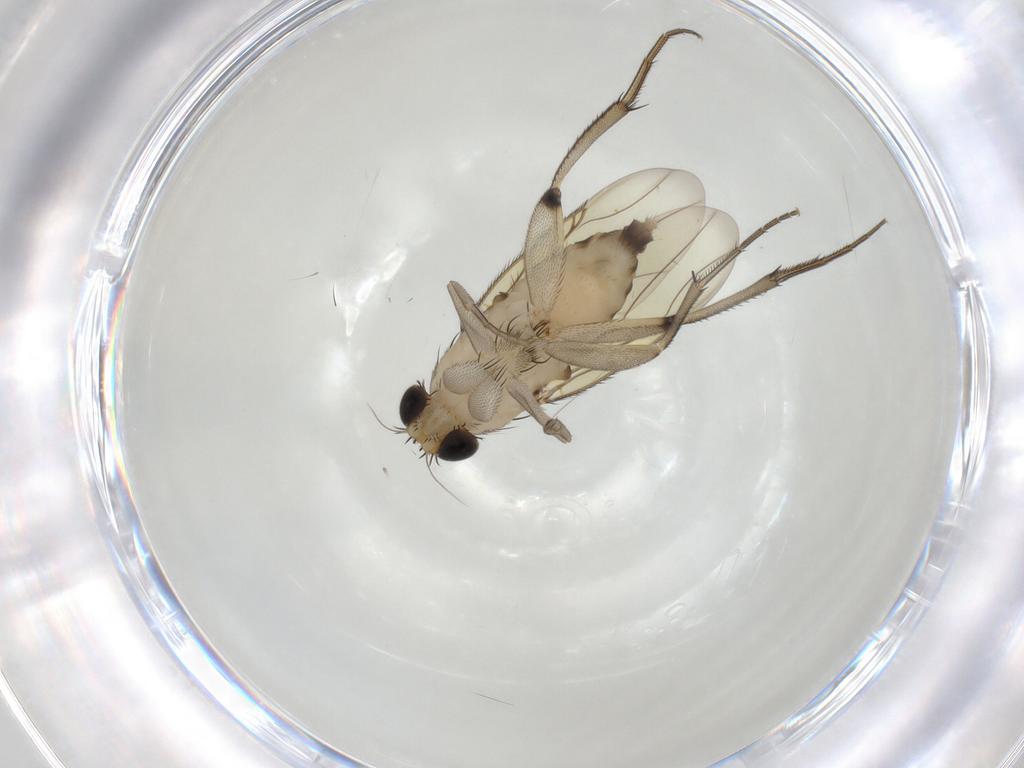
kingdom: Animalia
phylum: Arthropoda
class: Insecta
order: Diptera
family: Phoridae
